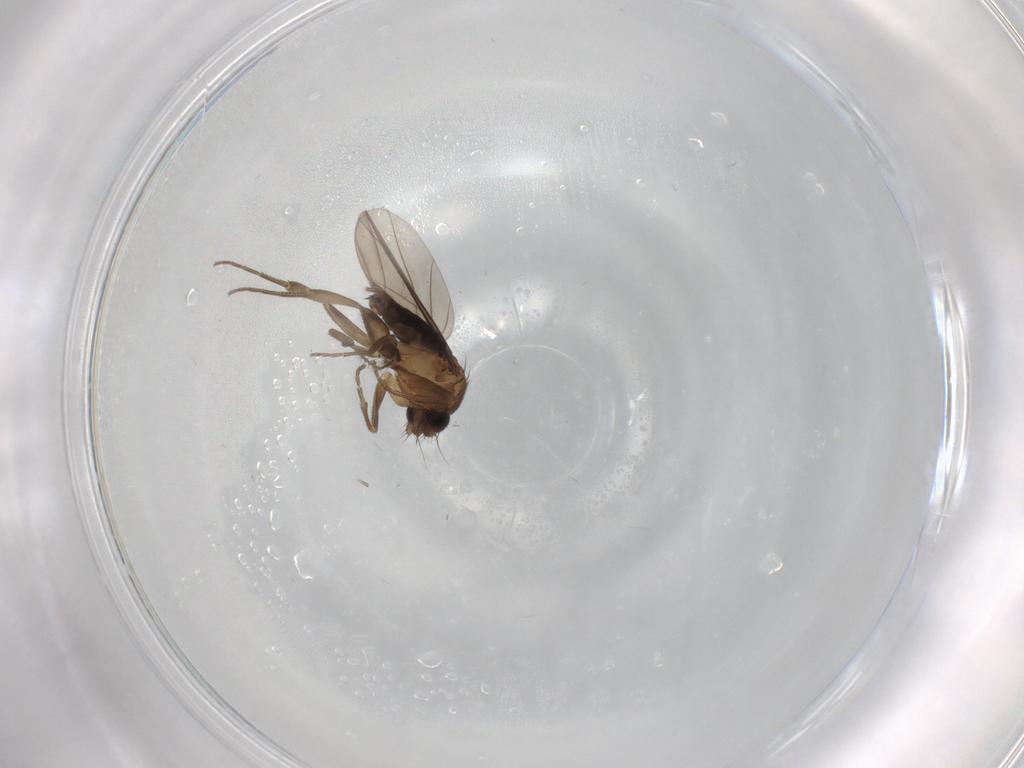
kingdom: Animalia
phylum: Arthropoda
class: Insecta
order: Diptera
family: Phoridae
